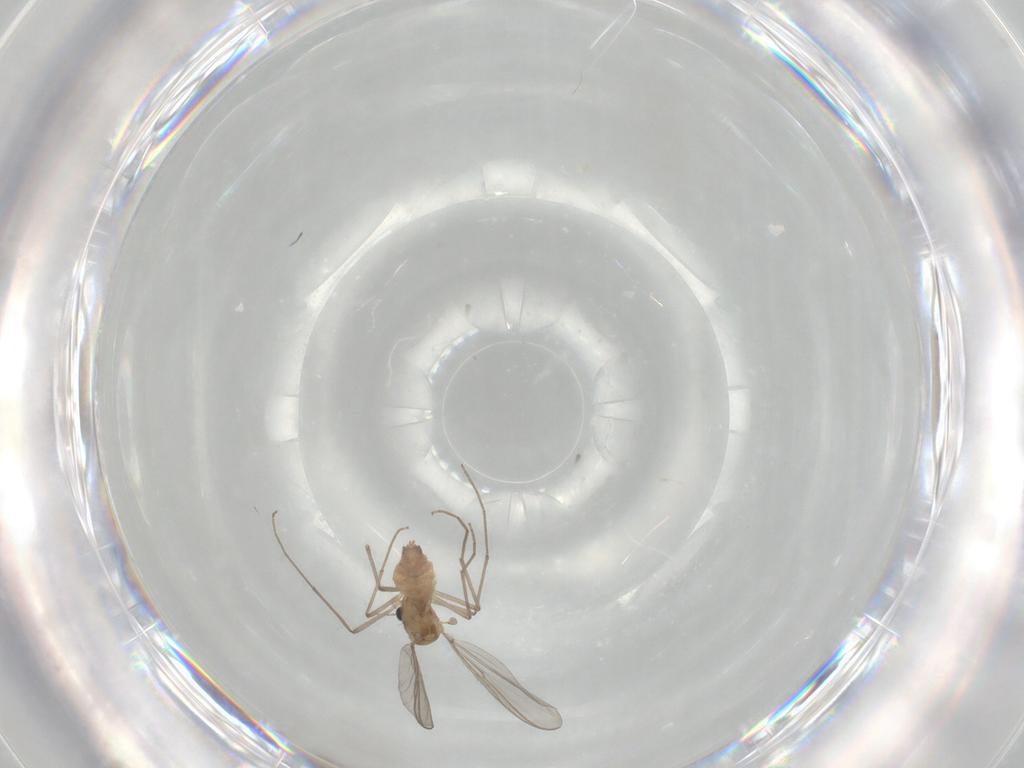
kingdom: Animalia
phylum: Arthropoda
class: Insecta
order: Diptera
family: Chironomidae
